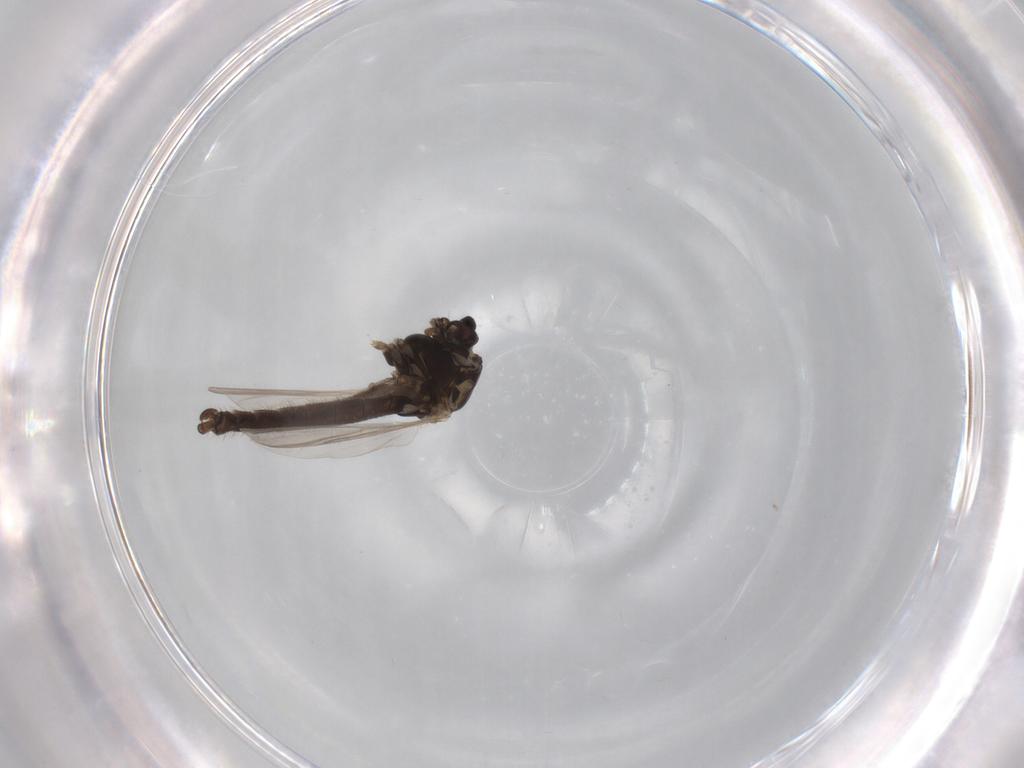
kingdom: Animalia
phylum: Arthropoda
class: Insecta
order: Diptera
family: Chironomidae
